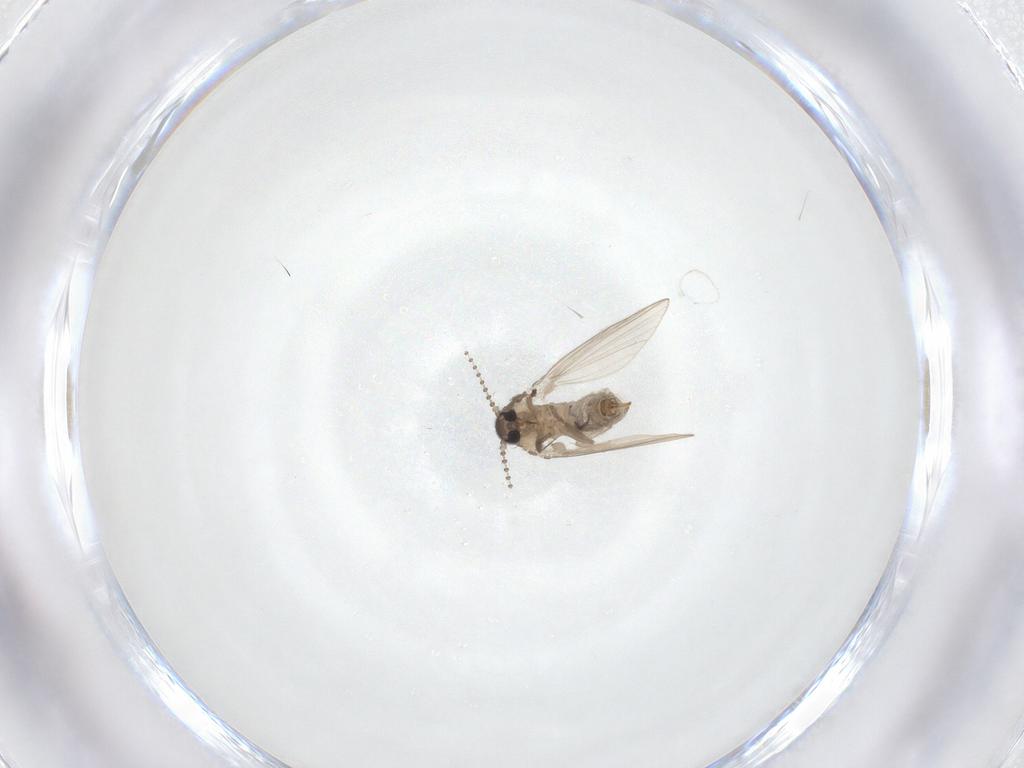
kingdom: Animalia
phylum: Arthropoda
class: Insecta
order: Diptera
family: Psychodidae
